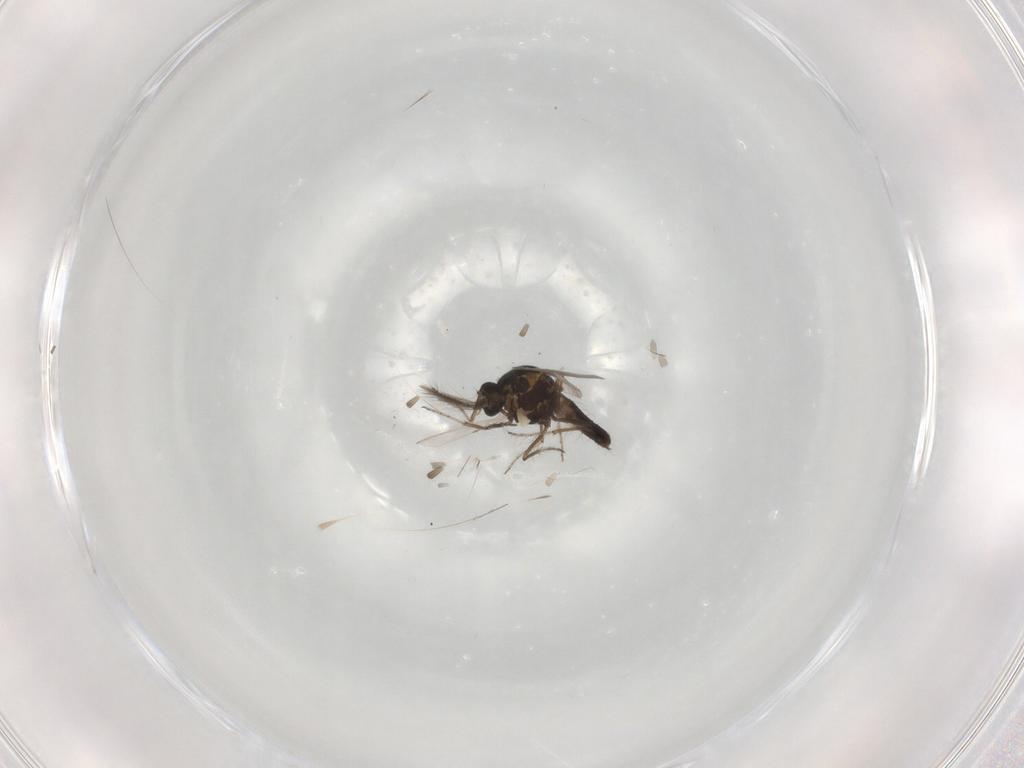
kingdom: Animalia
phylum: Arthropoda
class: Insecta
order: Diptera
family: Ceratopogonidae
